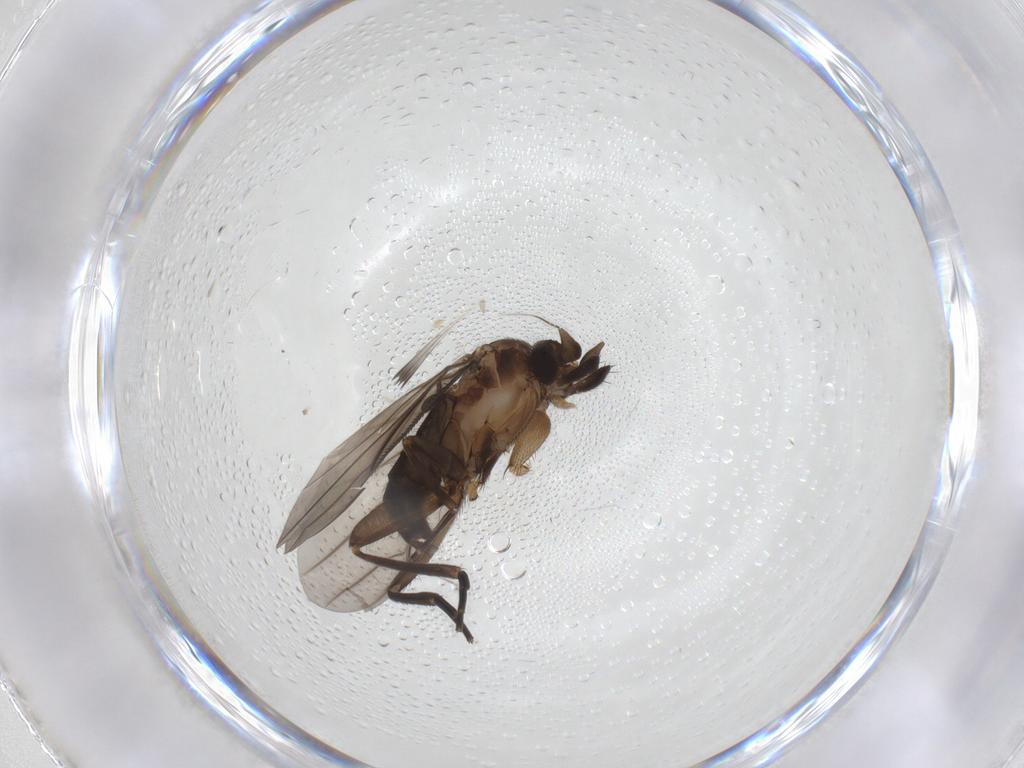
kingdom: Animalia
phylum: Arthropoda
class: Insecta
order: Diptera
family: Phoridae
